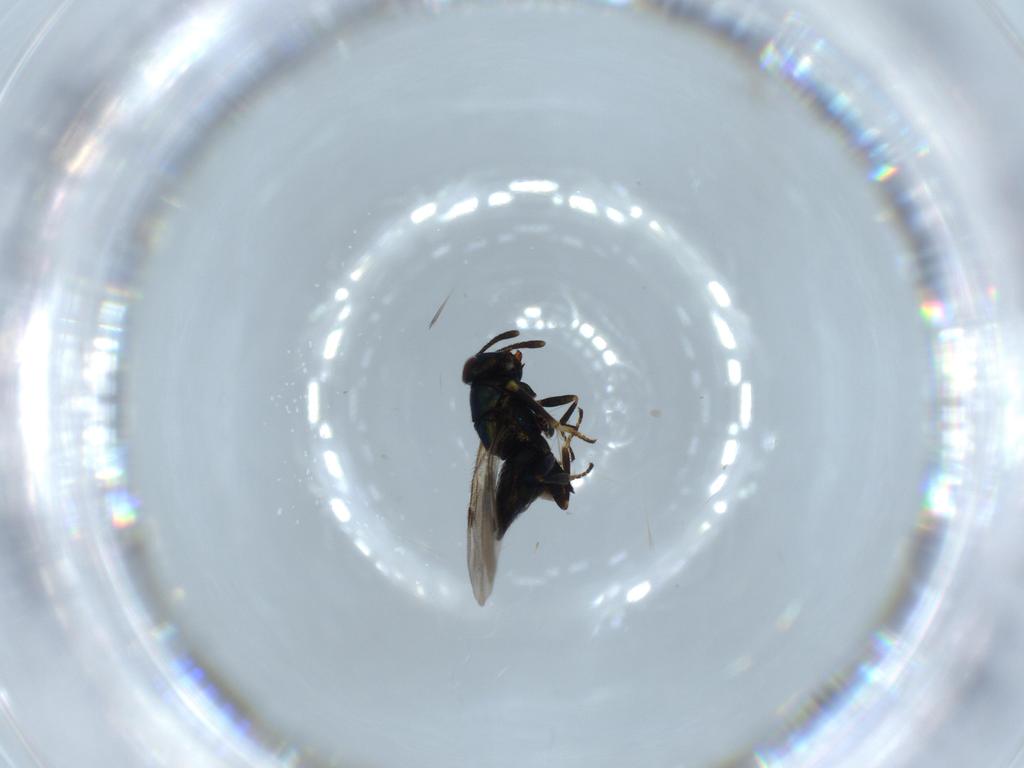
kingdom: Animalia
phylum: Arthropoda
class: Insecta
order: Hymenoptera
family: Encyrtidae
